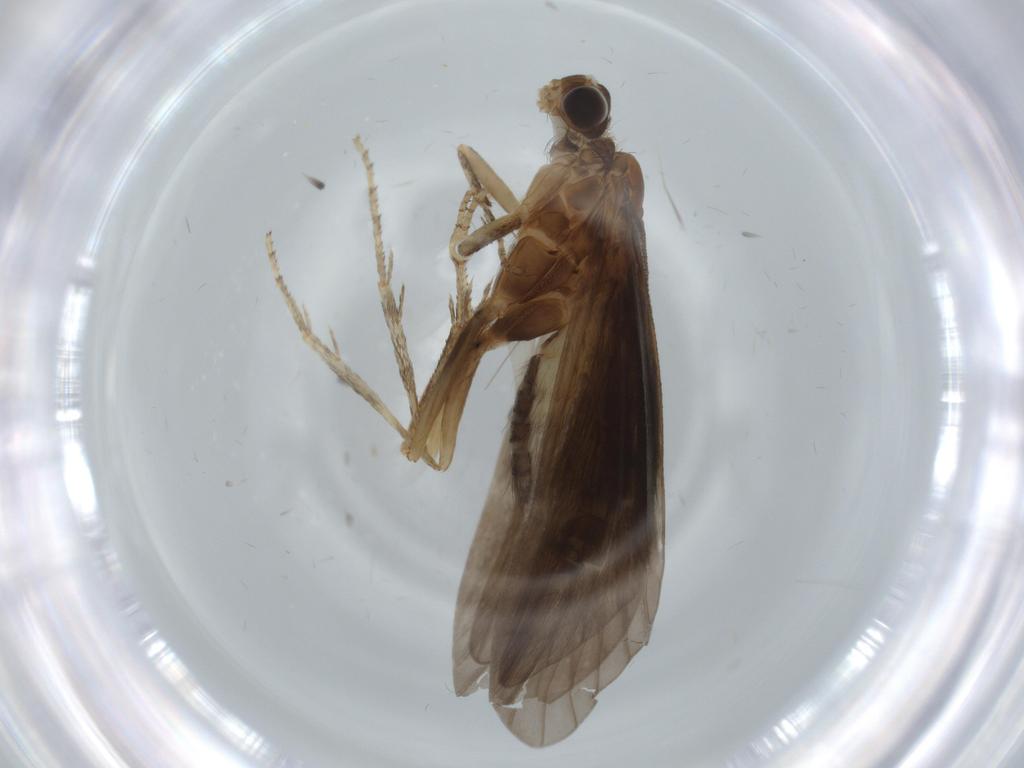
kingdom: Animalia
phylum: Arthropoda
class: Insecta
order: Trichoptera
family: Helicopsychidae
